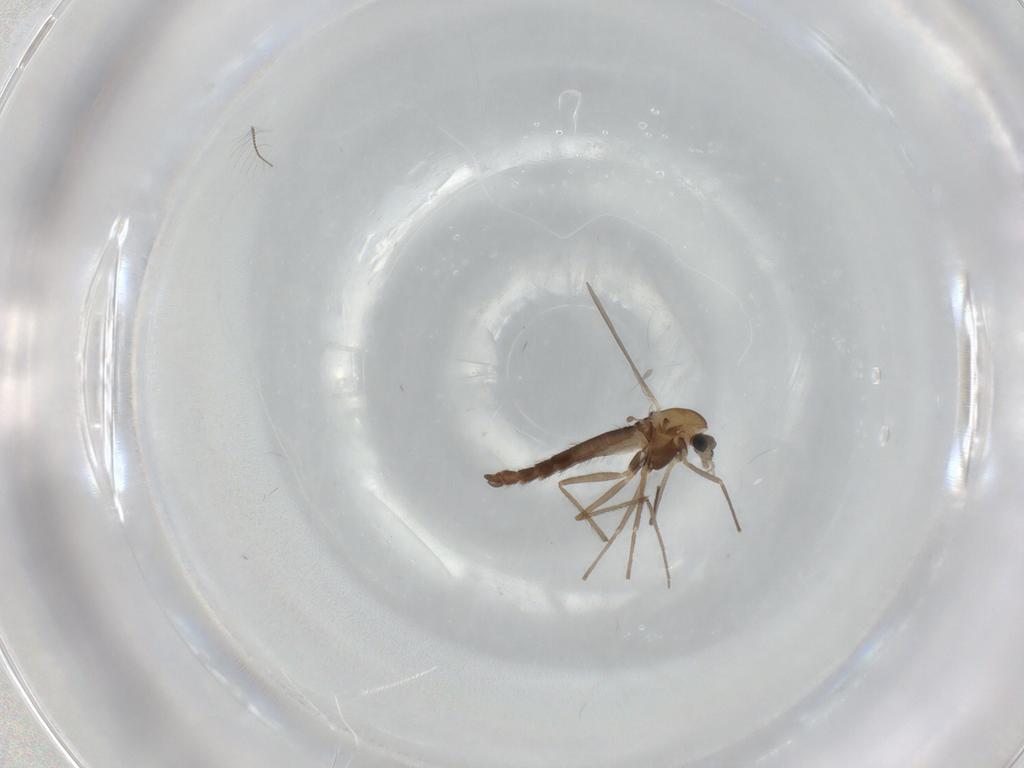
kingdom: Animalia
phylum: Arthropoda
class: Insecta
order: Diptera
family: Micropezidae
